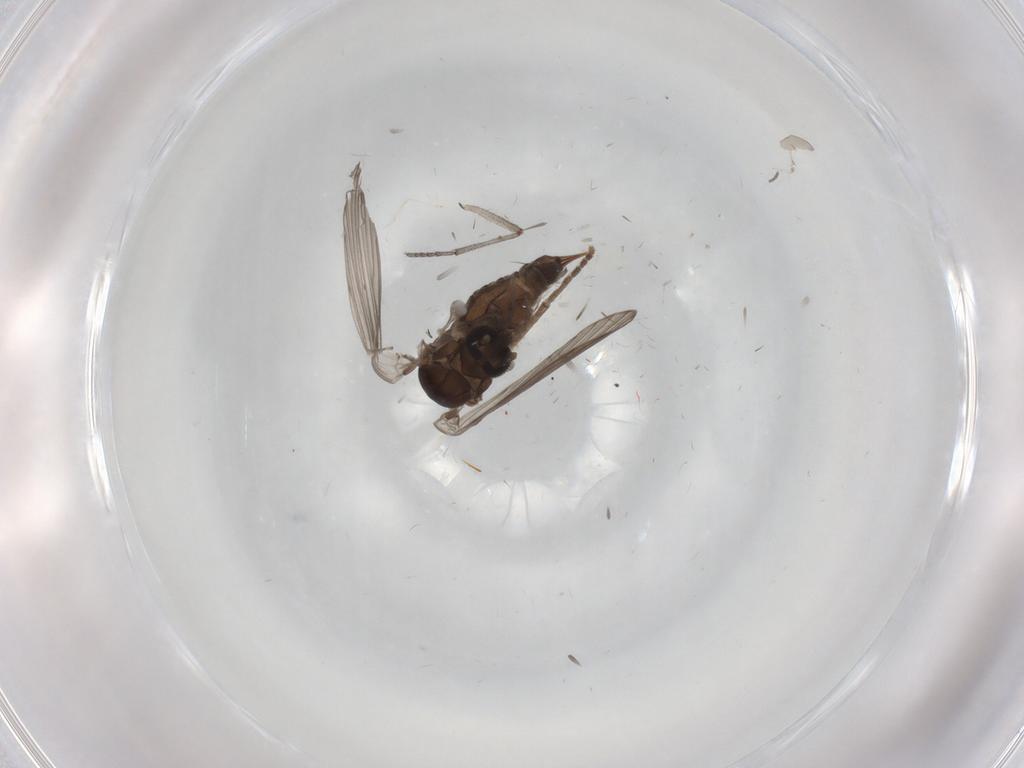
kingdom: Animalia
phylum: Arthropoda
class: Insecta
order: Diptera
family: Psychodidae
